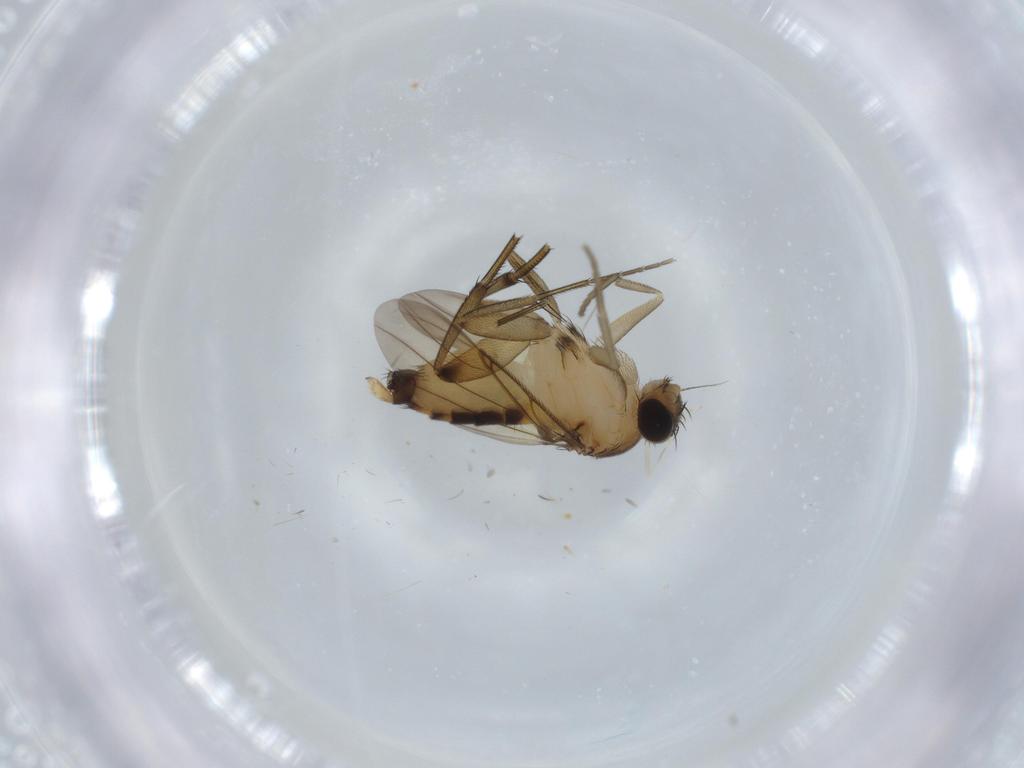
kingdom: Animalia
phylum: Arthropoda
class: Insecta
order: Diptera
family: Phoridae
